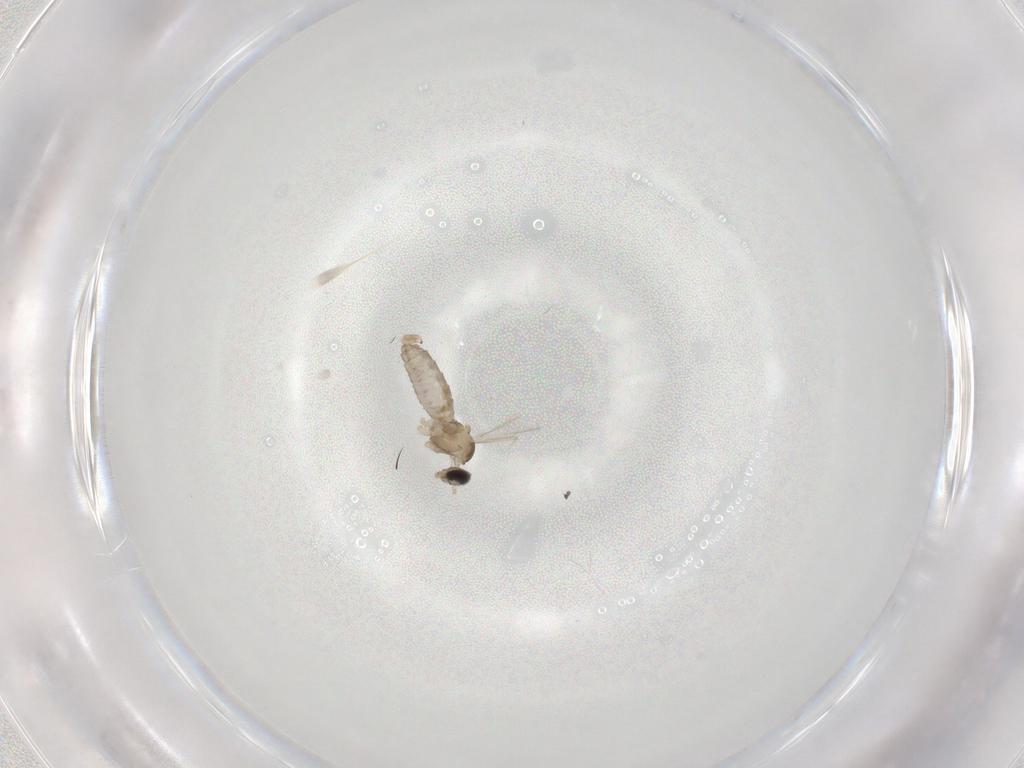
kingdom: Animalia
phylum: Arthropoda
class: Insecta
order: Diptera
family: Cecidomyiidae
